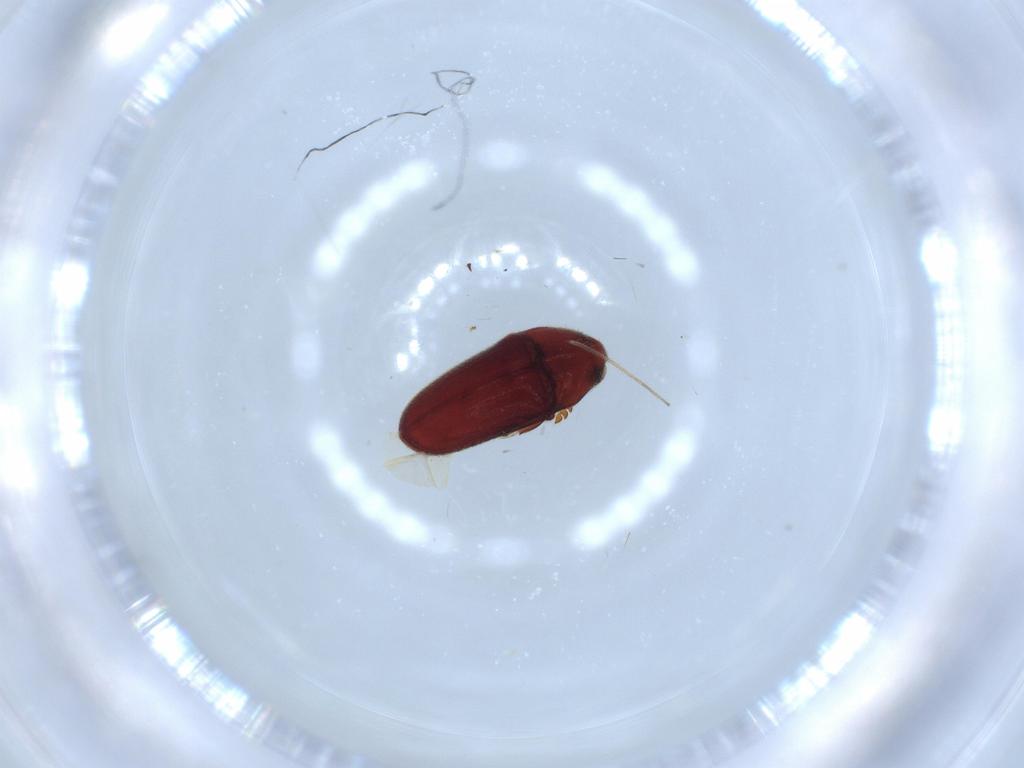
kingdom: Animalia
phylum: Arthropoda
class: Insecta
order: Coleoptera
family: Throscidae
